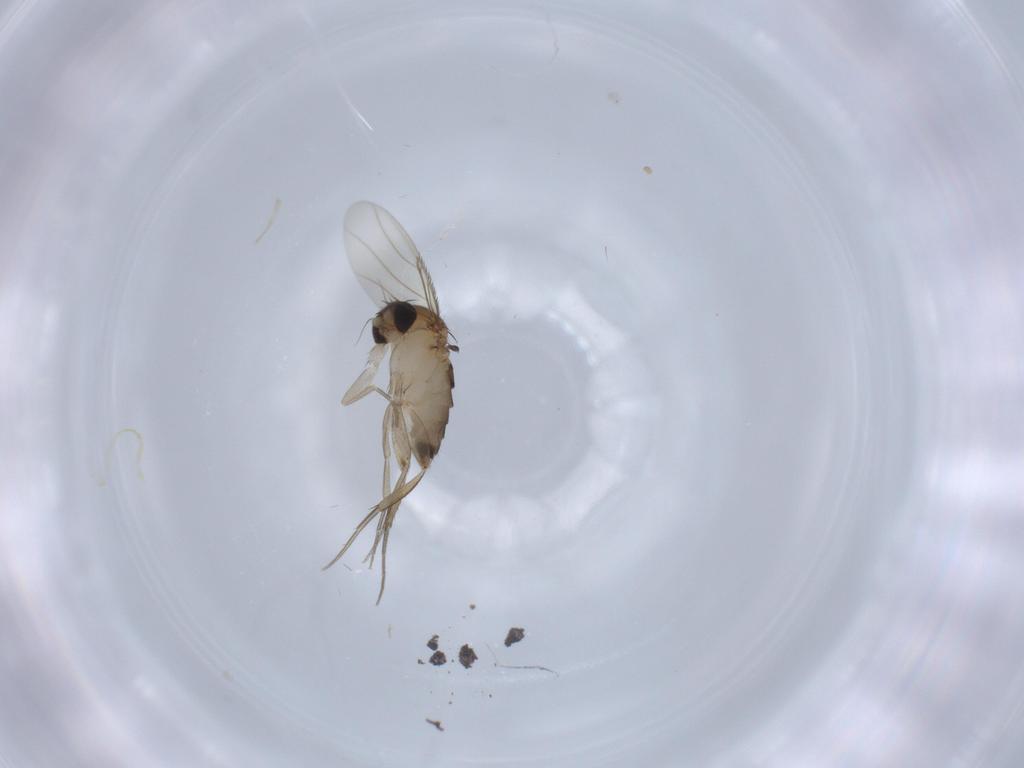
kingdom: Animalia
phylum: Arthropoda
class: Insecta
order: Diptera
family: Phoridae
